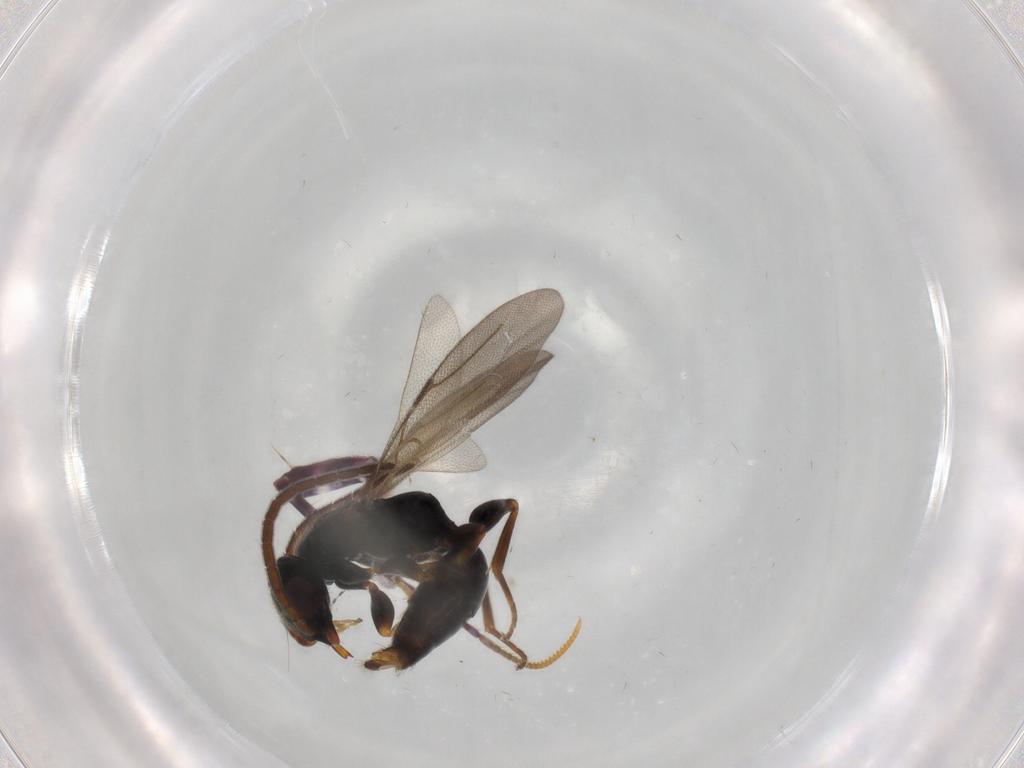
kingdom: Animalia
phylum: Arthropoda
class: Insecta
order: Hymenoptera
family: Bethylidae
